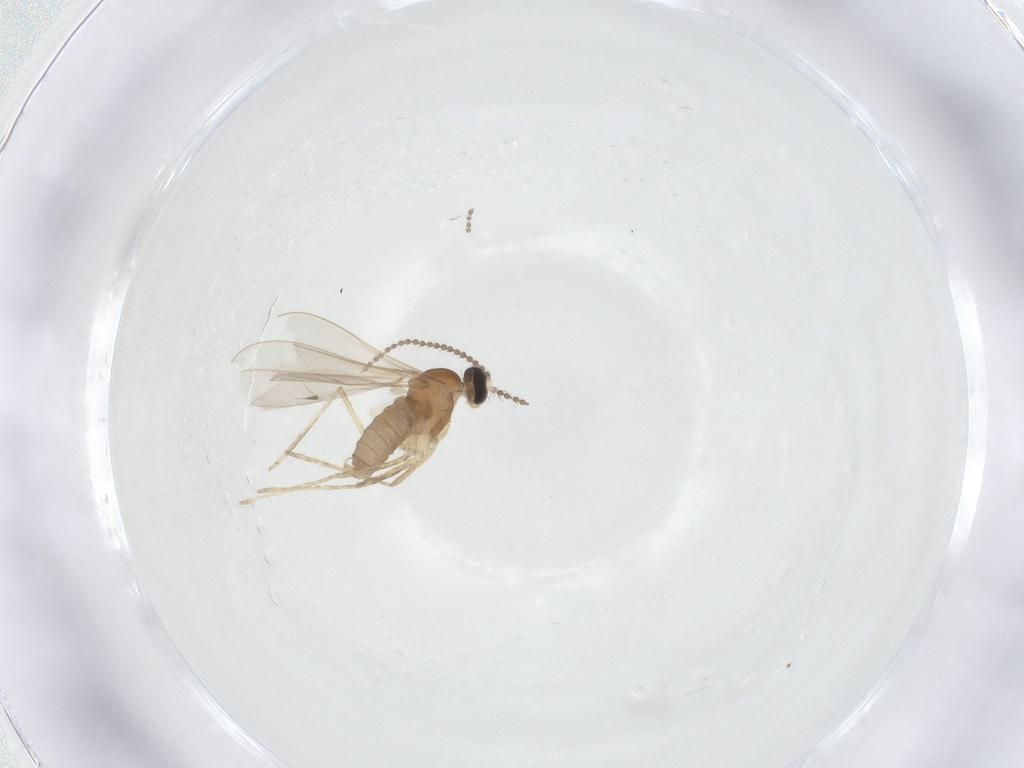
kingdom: Animalia
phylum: Arthropoda
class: Insecta
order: Diptera
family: Cecidomyiidae
